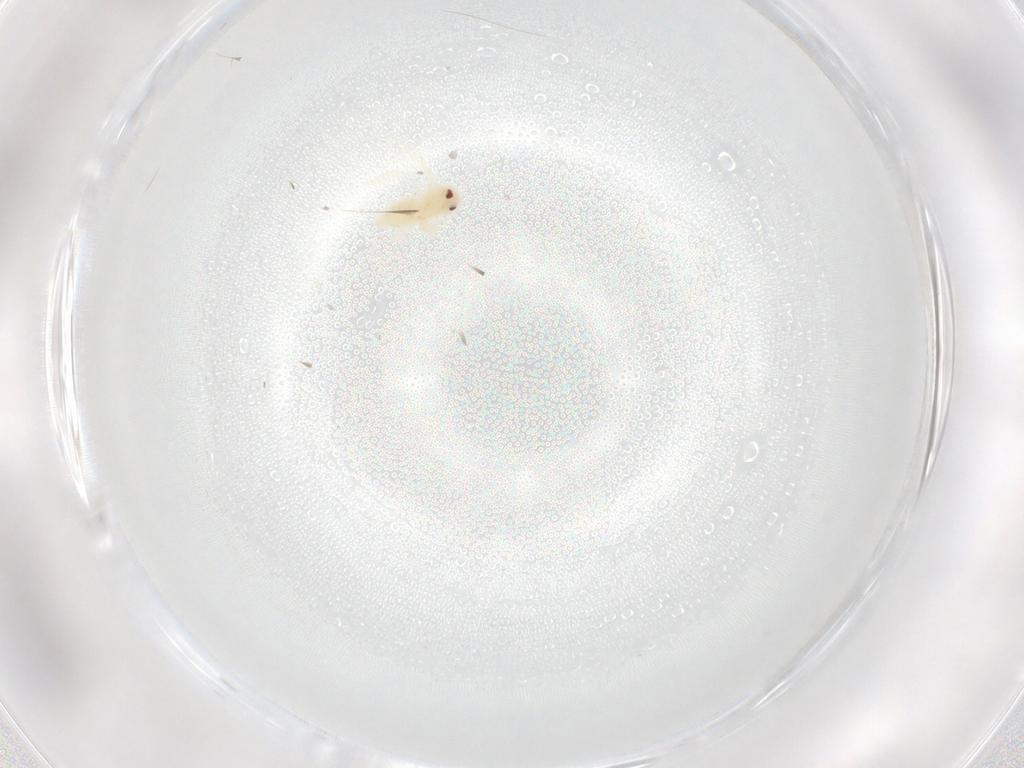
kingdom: Animalia
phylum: Arthropoda
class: Insecta
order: Hemiptera
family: Aleyrodidae
